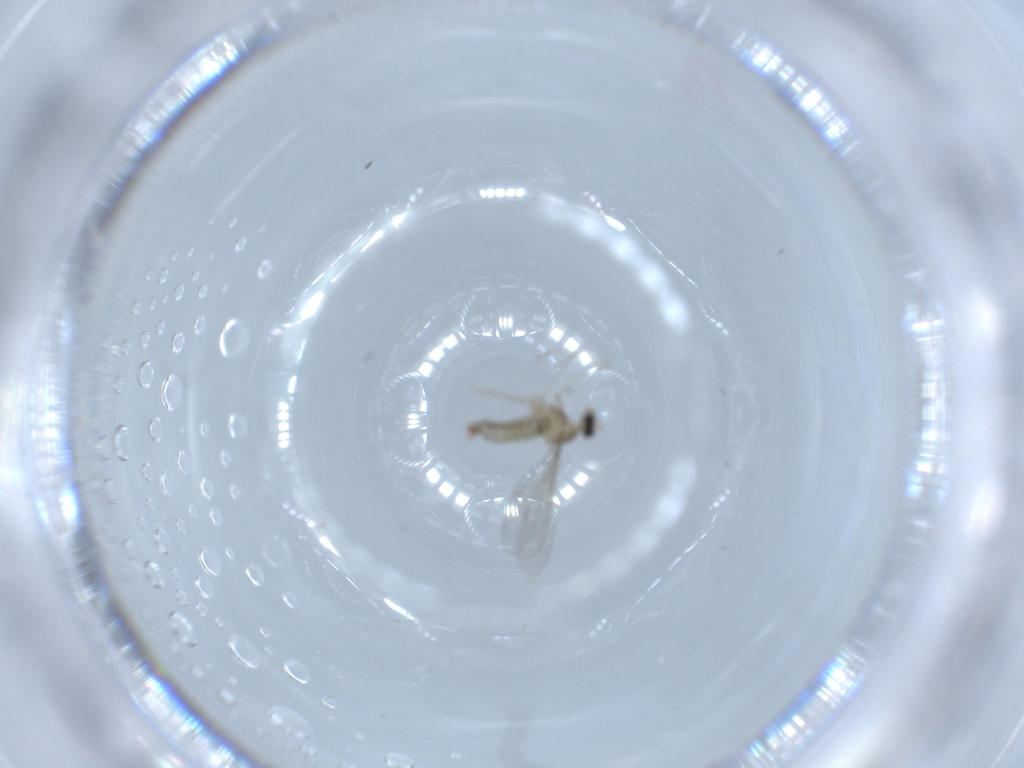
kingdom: Animalia
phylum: Arthropoda
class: Insecta
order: Diptera
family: Cecidomyiidae
